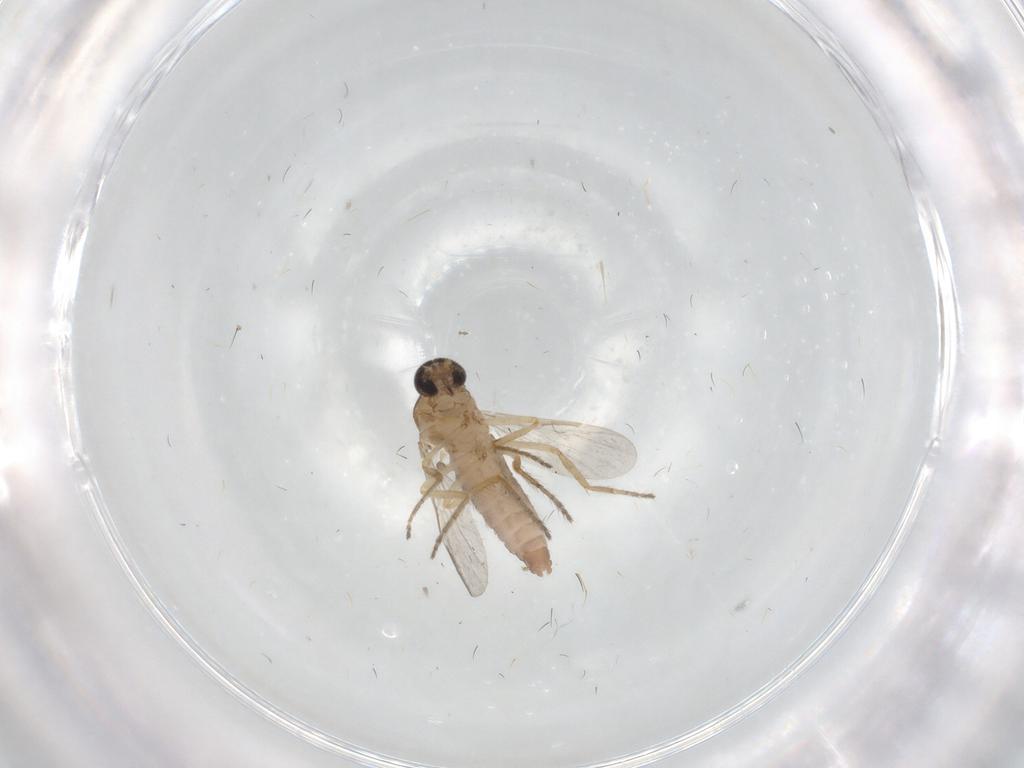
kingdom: Animalia
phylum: Arthropoda
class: Insecta
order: Diptera
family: Ceratopogonidae
